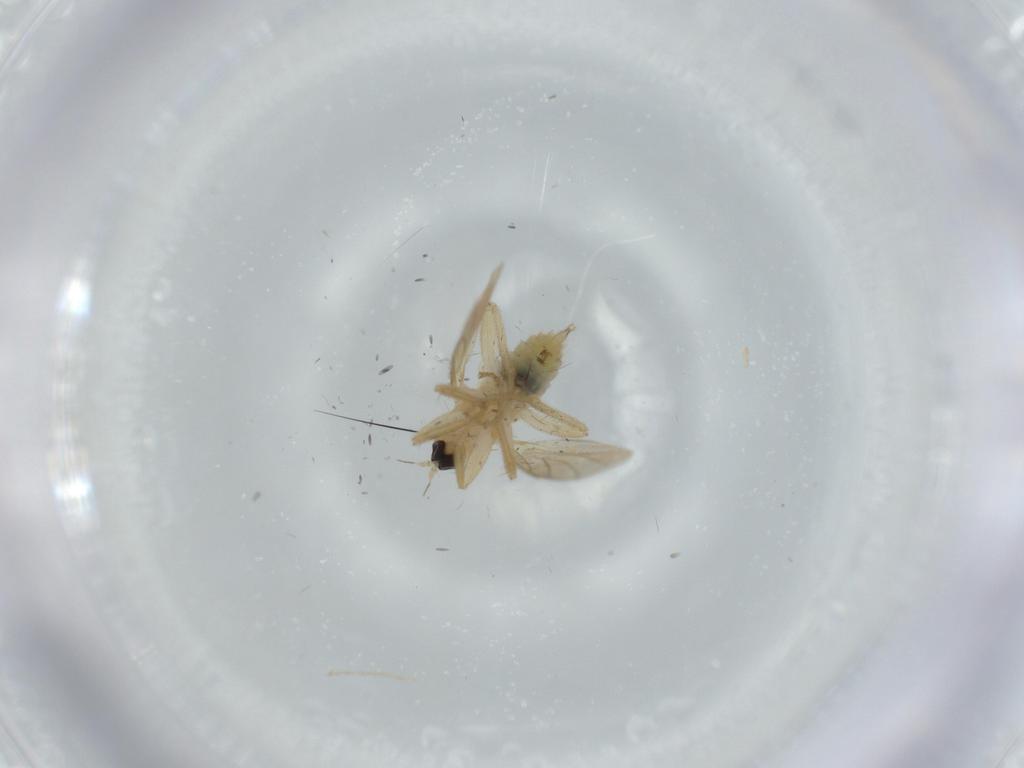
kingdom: Animalia
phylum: Arthropoda
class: Insecta
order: Diptera
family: Hybotidae
